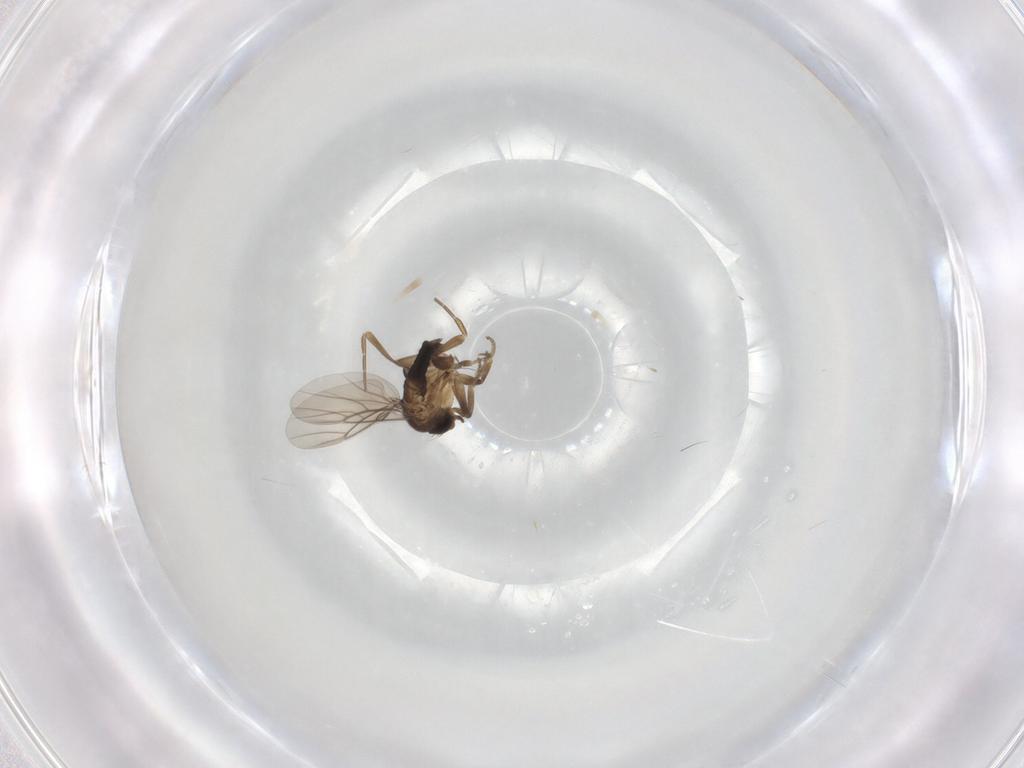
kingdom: Animalia
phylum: Arthropoda
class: Insecta
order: Diptera
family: Phoridae
